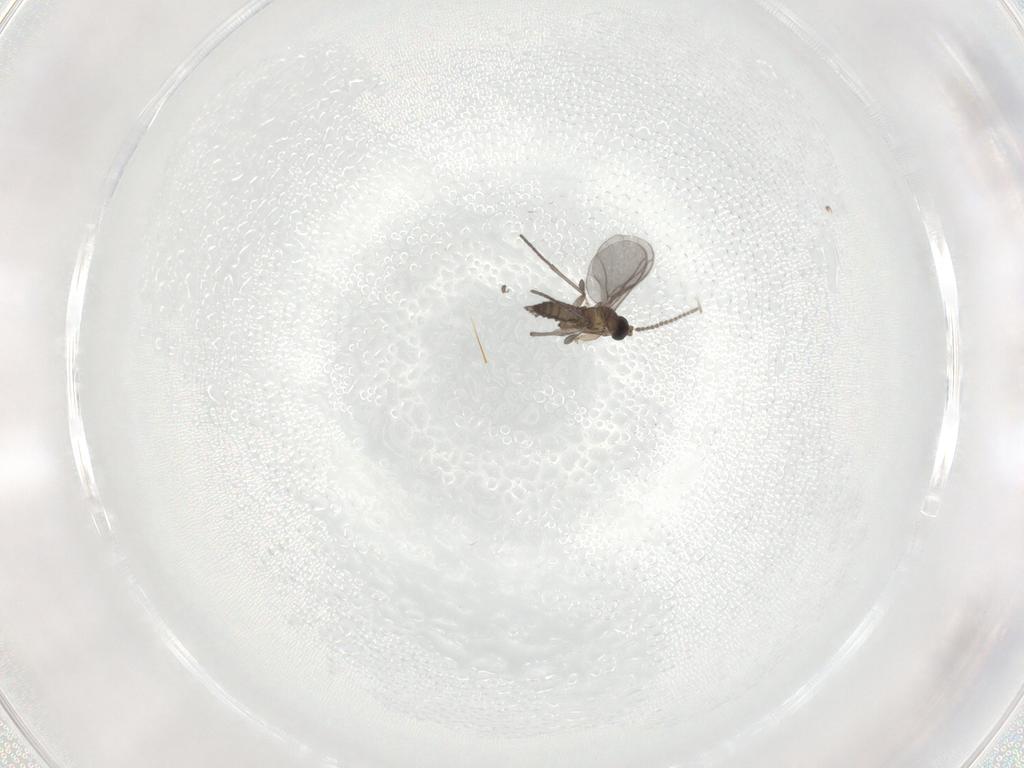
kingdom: Animalia
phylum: Arthropoda
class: Insecta
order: Diptera
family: Sciaridae
